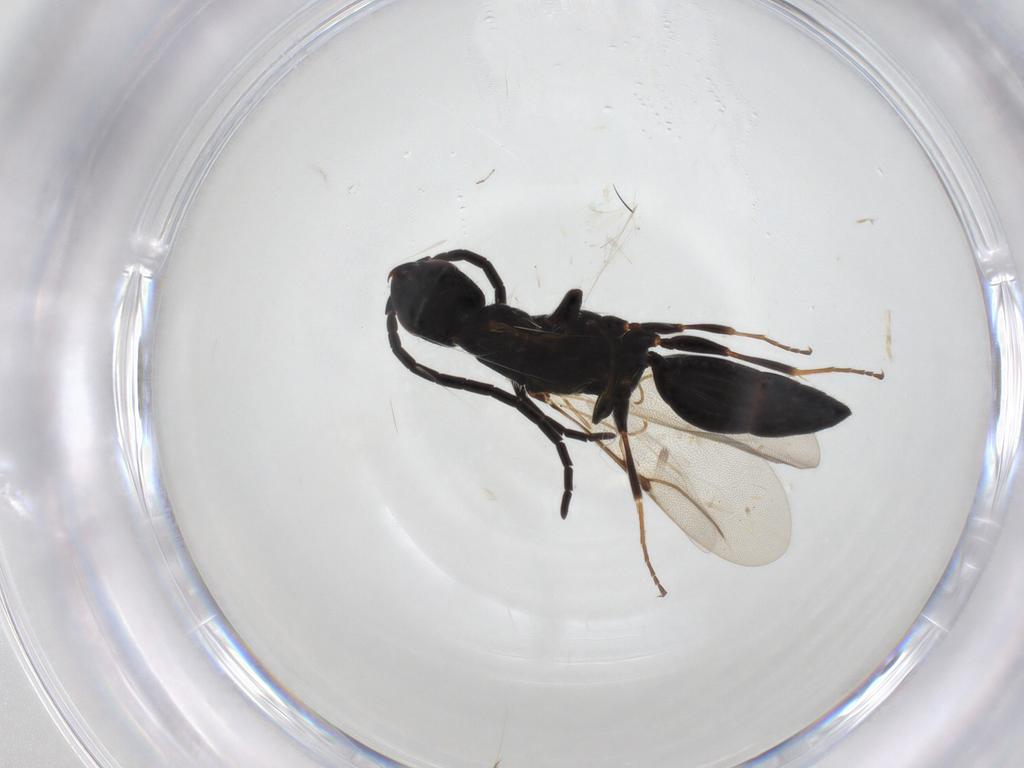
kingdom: Animalia
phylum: Arthropoda
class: Insecta
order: Hymenoptera
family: Bethylidae
